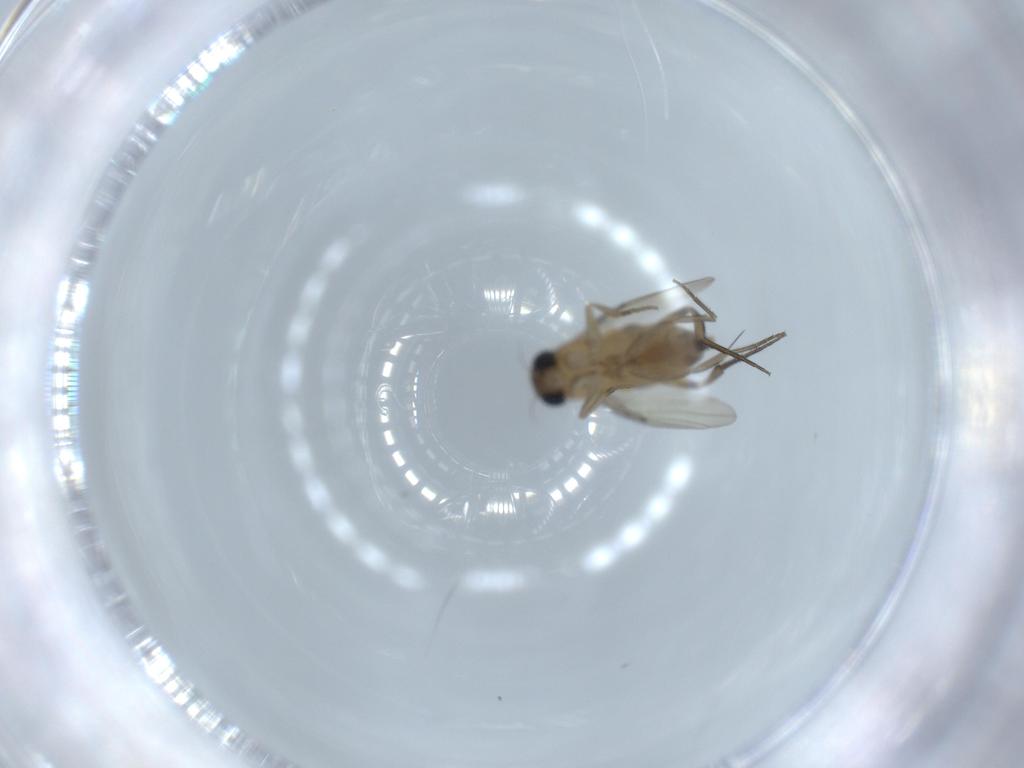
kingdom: Animalia
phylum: Arthropoda
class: Insecta
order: Diptera
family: Phoridae
